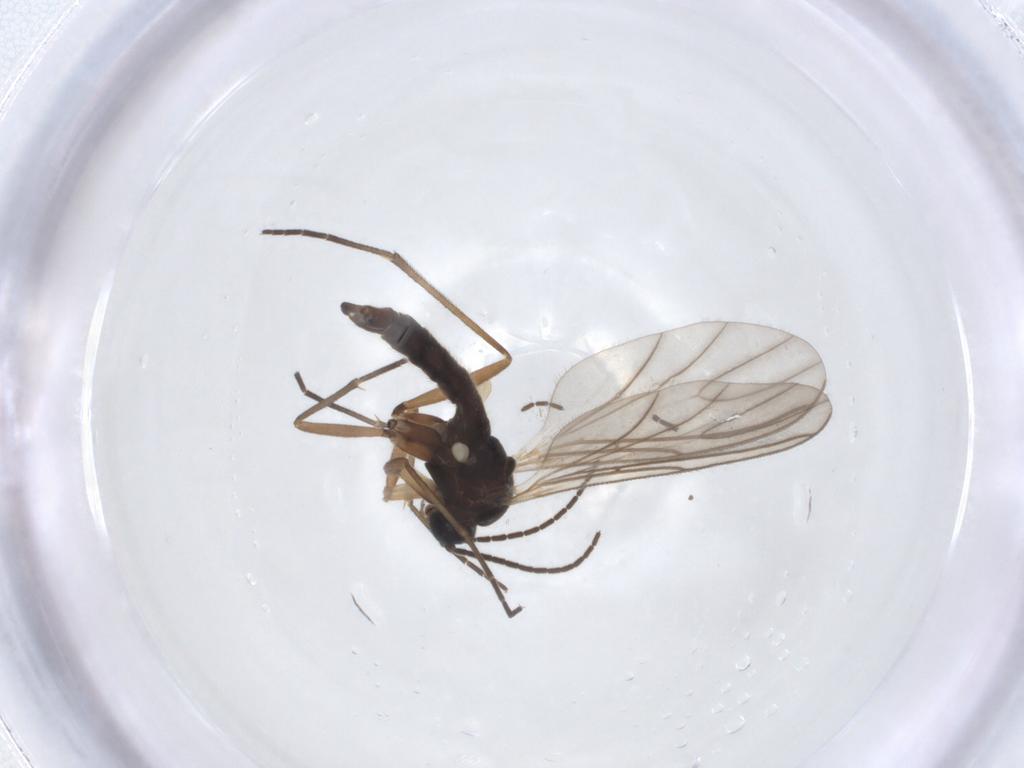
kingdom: Animalia
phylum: Arthropoda
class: Insecta
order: Diptera
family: Sciaridae
